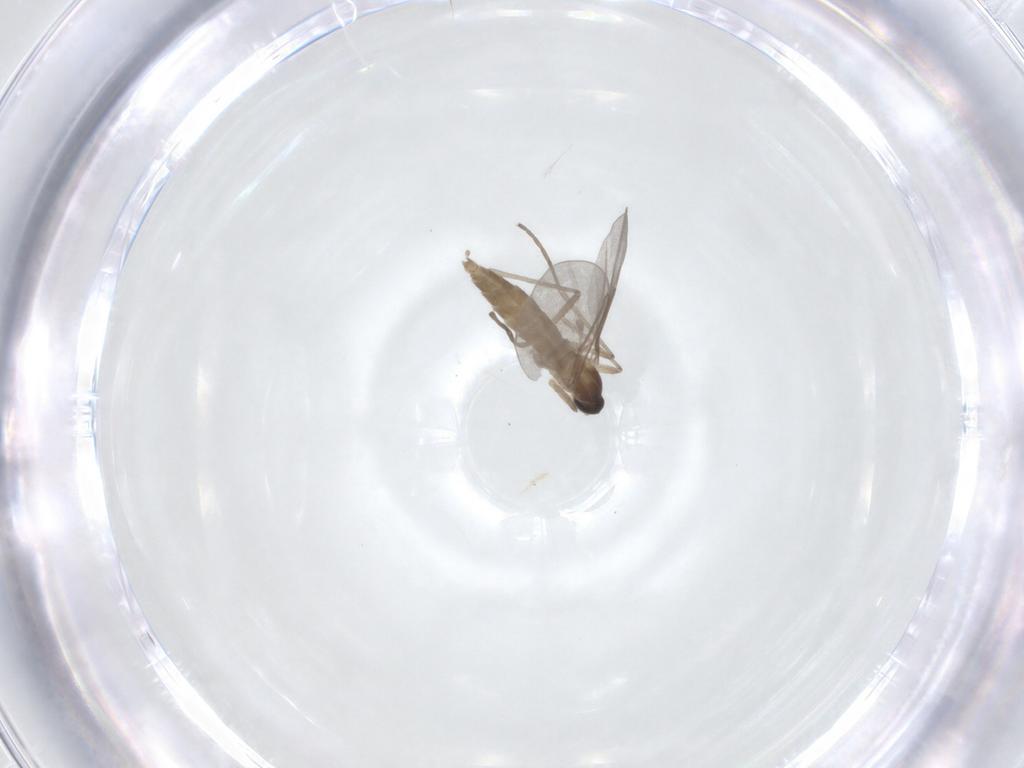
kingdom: Animalia
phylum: Arthropoda
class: Insecta
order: Diptera
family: Cecidomyiidae
